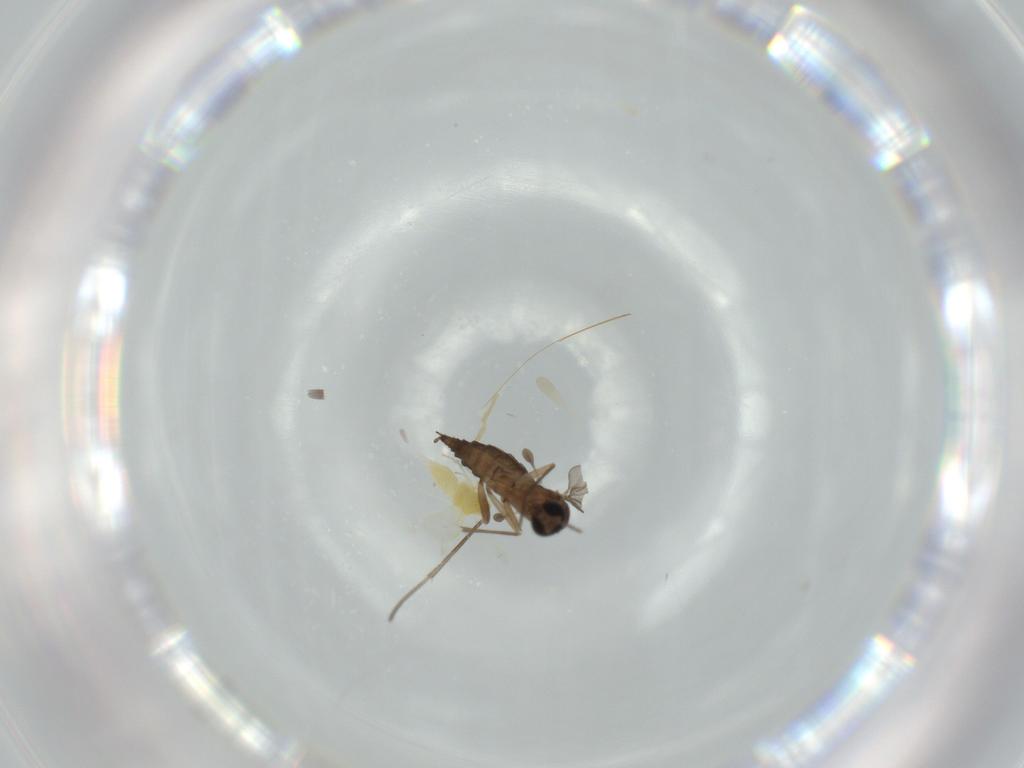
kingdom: Animalia
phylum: Arthropoda
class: Insecta
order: Diptera
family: Sciaridae
